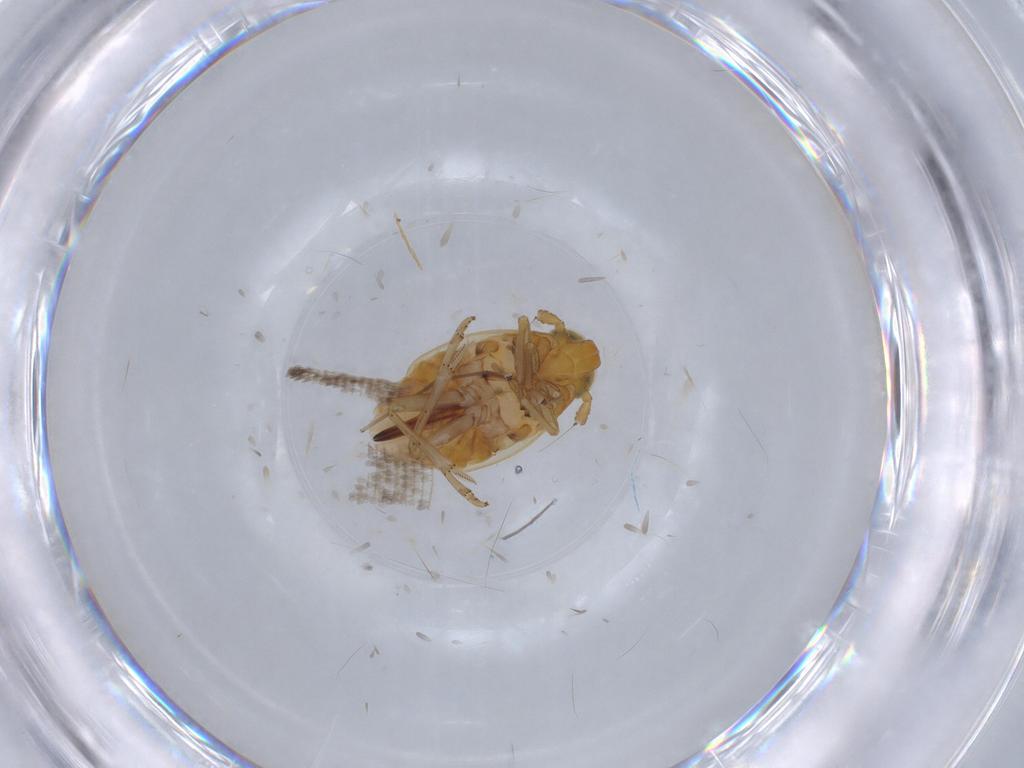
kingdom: Animalia
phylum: Arthropoda
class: Insecta
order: Hemiptera
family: Delphacidae
